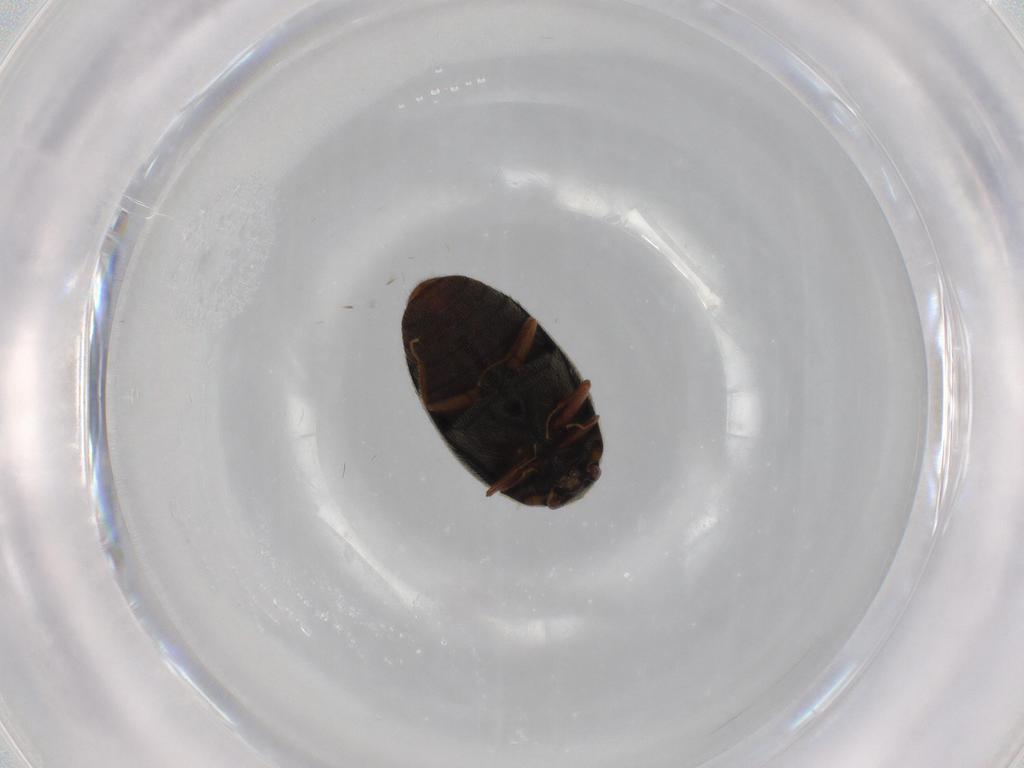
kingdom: Animalia
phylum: Arthropoda
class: Insecta
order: Coleoptera
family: Dermestidae
